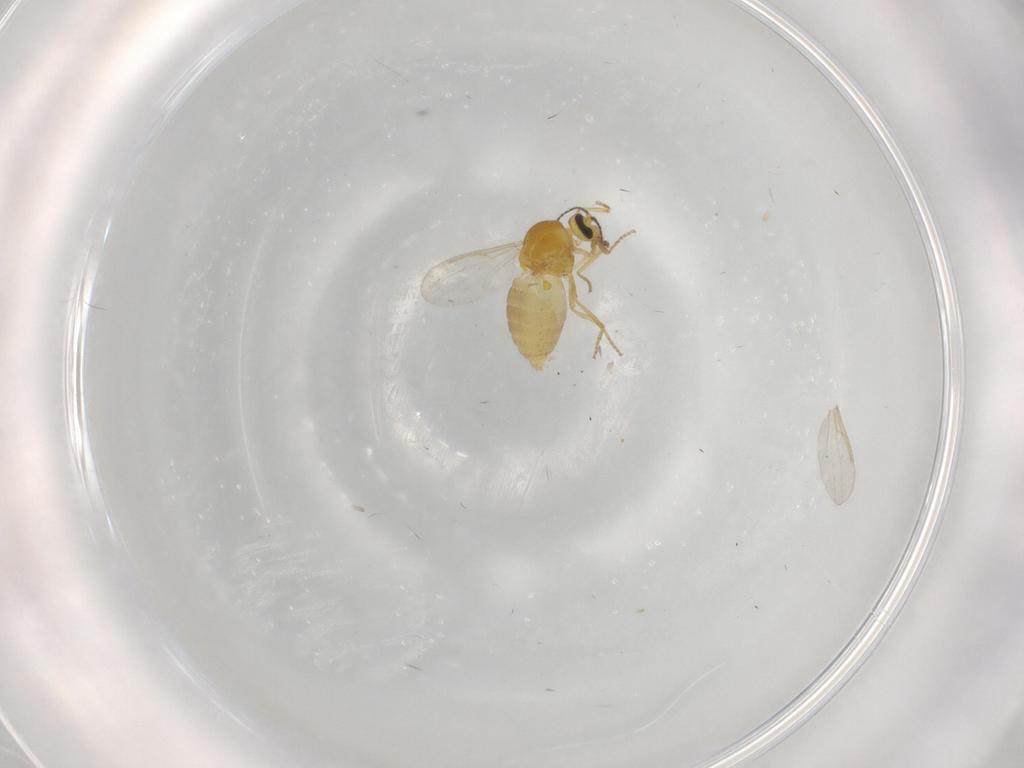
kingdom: Animalia
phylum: Arthropoda
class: Insecta
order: Diptera
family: Ceratopogonidae
